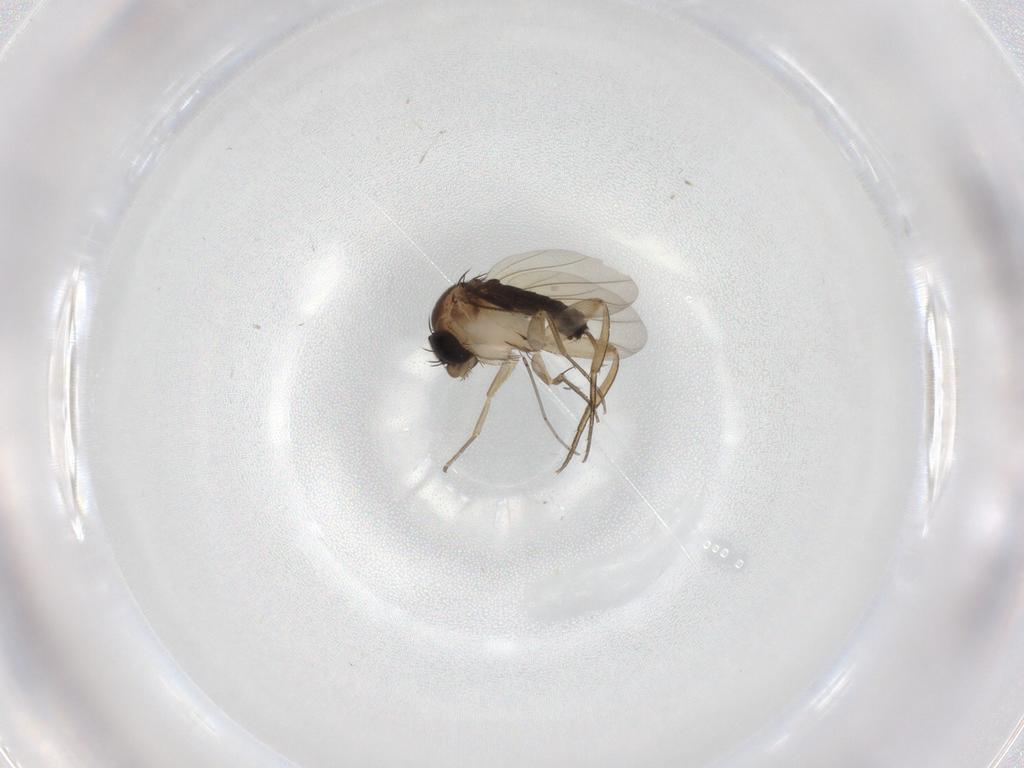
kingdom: Animalia
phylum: Arthropoda
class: Insecta
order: Diptera
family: Phoridae
